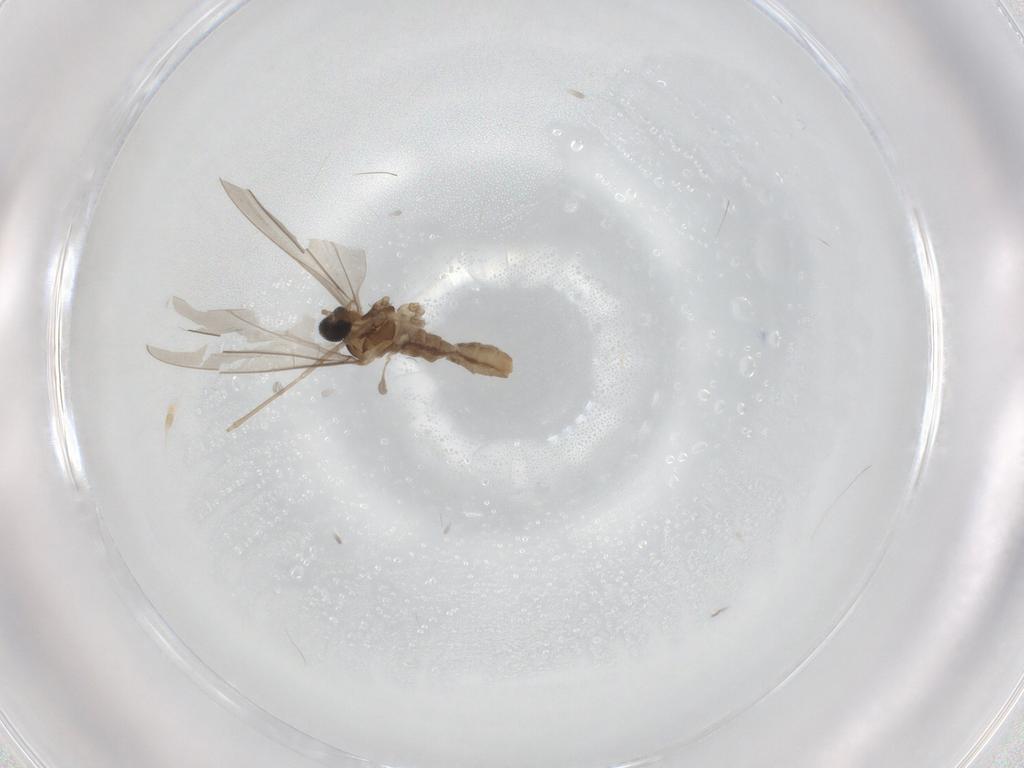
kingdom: Animalia
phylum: Arthropoda
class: Insecta
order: Diptera
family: Cecidomyiidae
